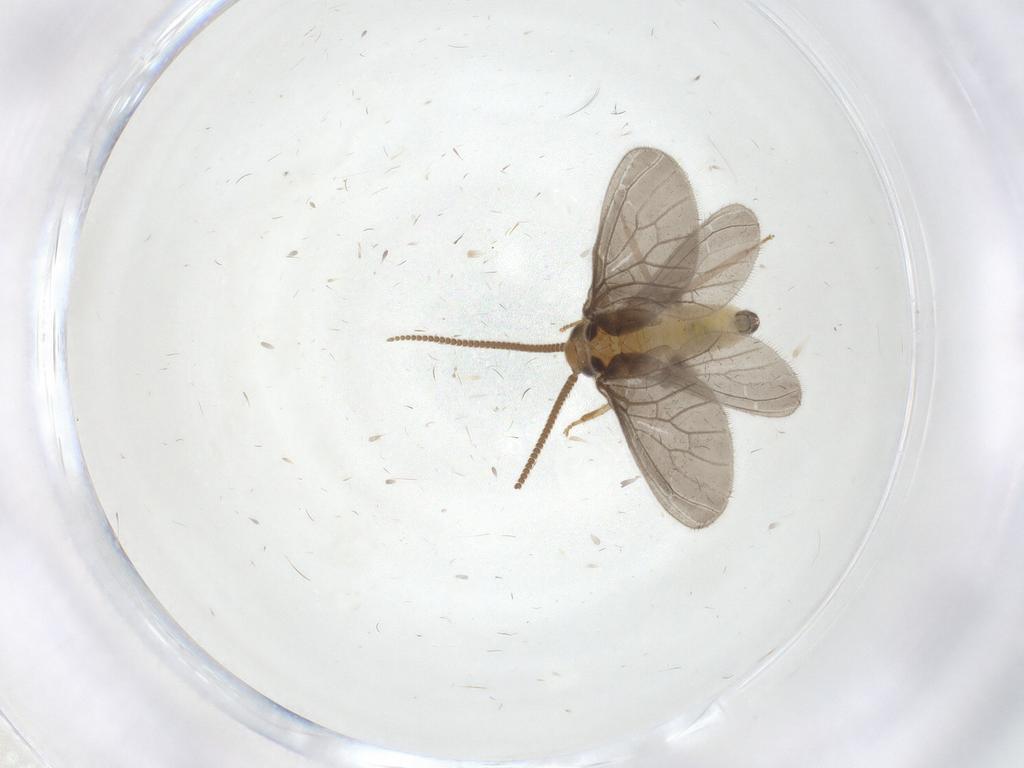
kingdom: Animalia
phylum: Arthropoda
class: Insecta
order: Neuroptera
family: Coniopterygidae
